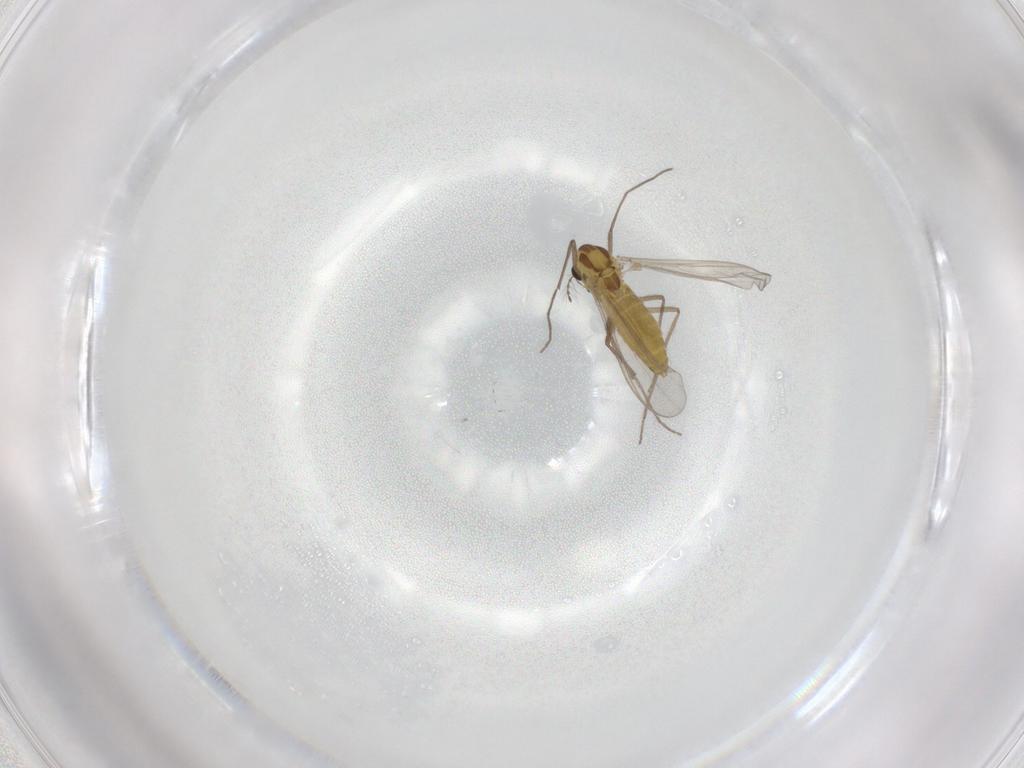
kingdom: Animalia
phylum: Arthropoda
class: Insecta
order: Diptera
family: Chironomidae
